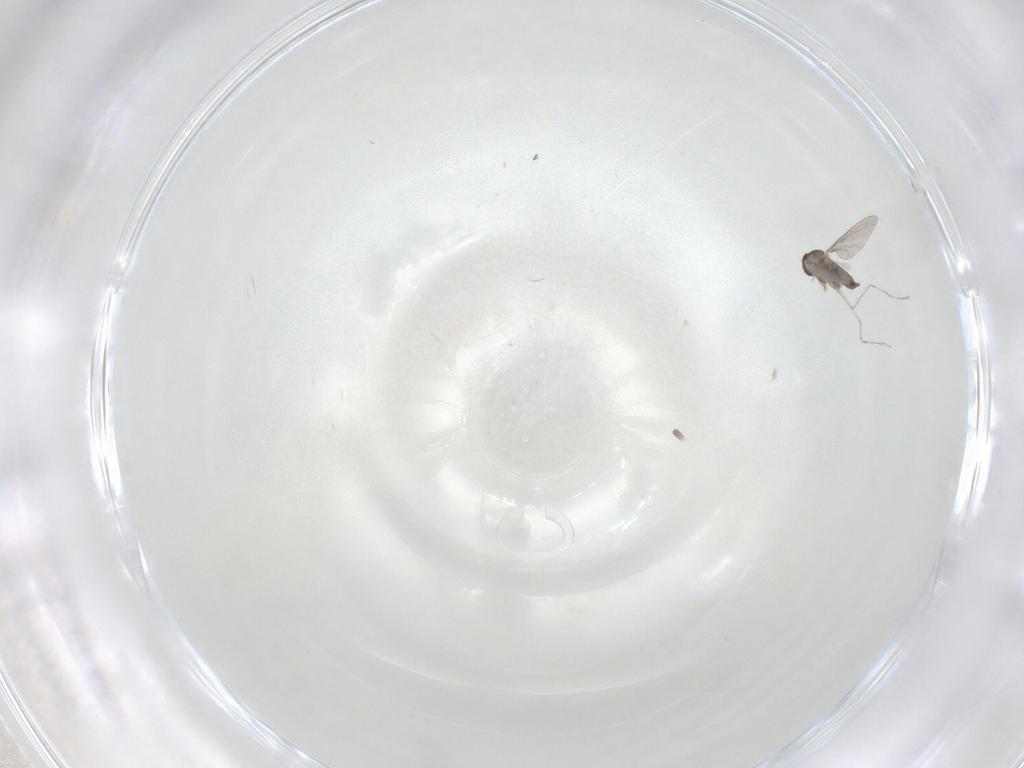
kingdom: Animalia
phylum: Arthropoda
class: Insecta
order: Diptera
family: Cecidomyiidae
